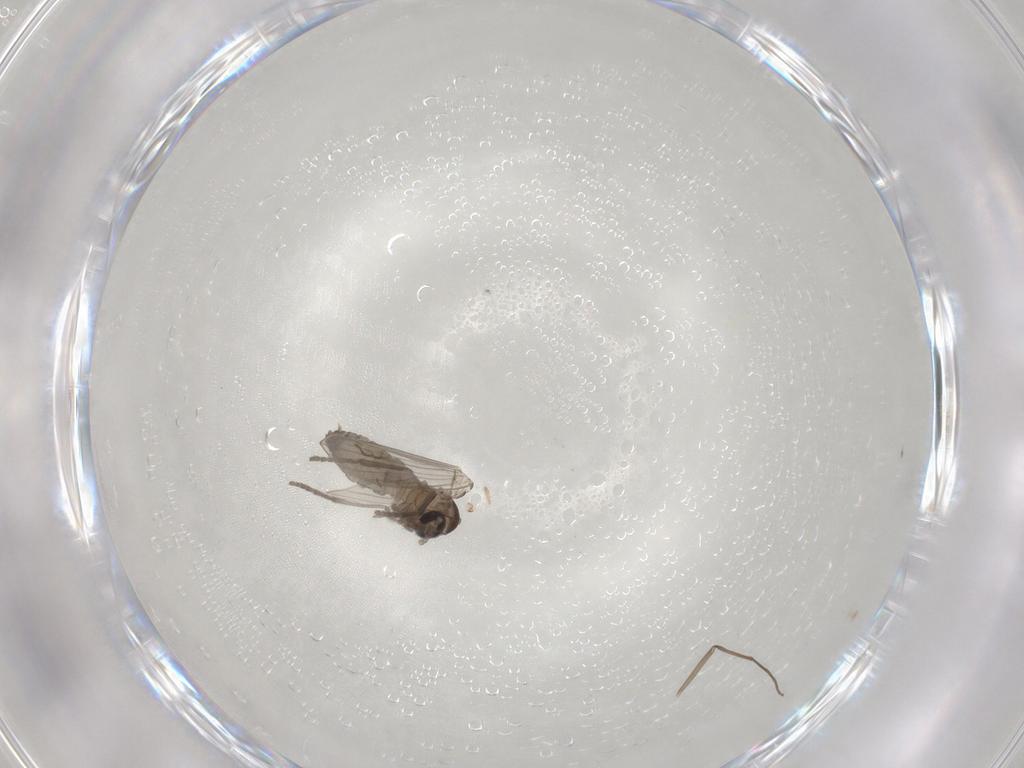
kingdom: Animalia
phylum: Arthropoda
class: Insecta
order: Diptera
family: Chironomidae
